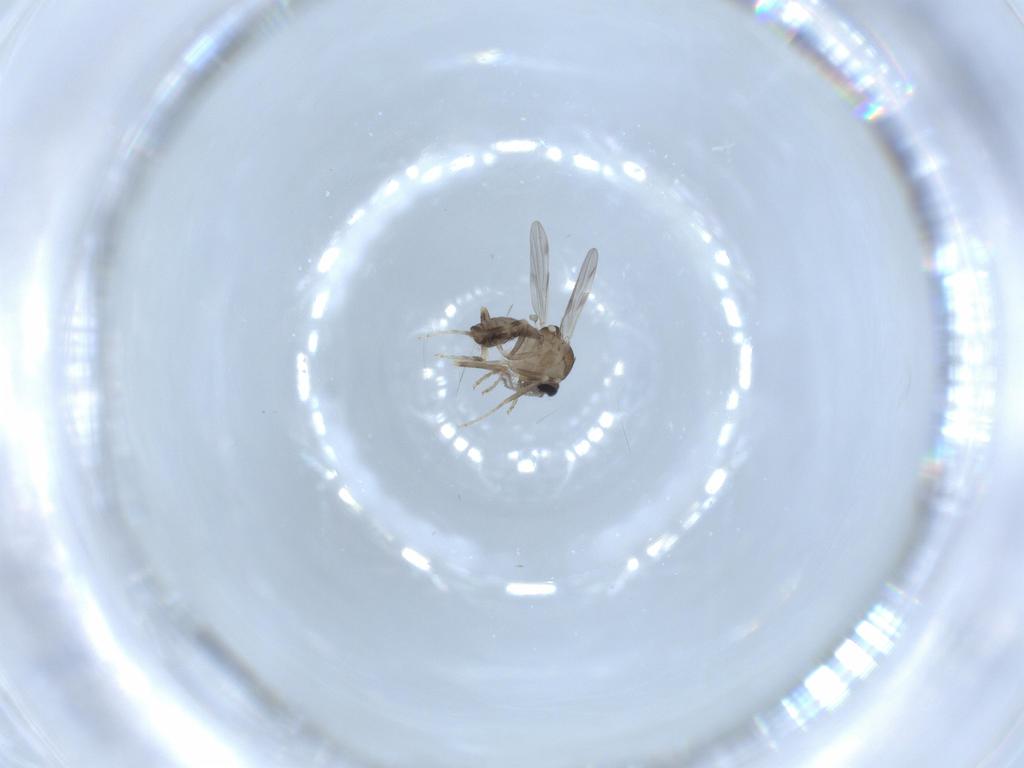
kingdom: Animalia
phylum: Arthropoda
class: Insecta
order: Diptera
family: Ceratopogonidae
